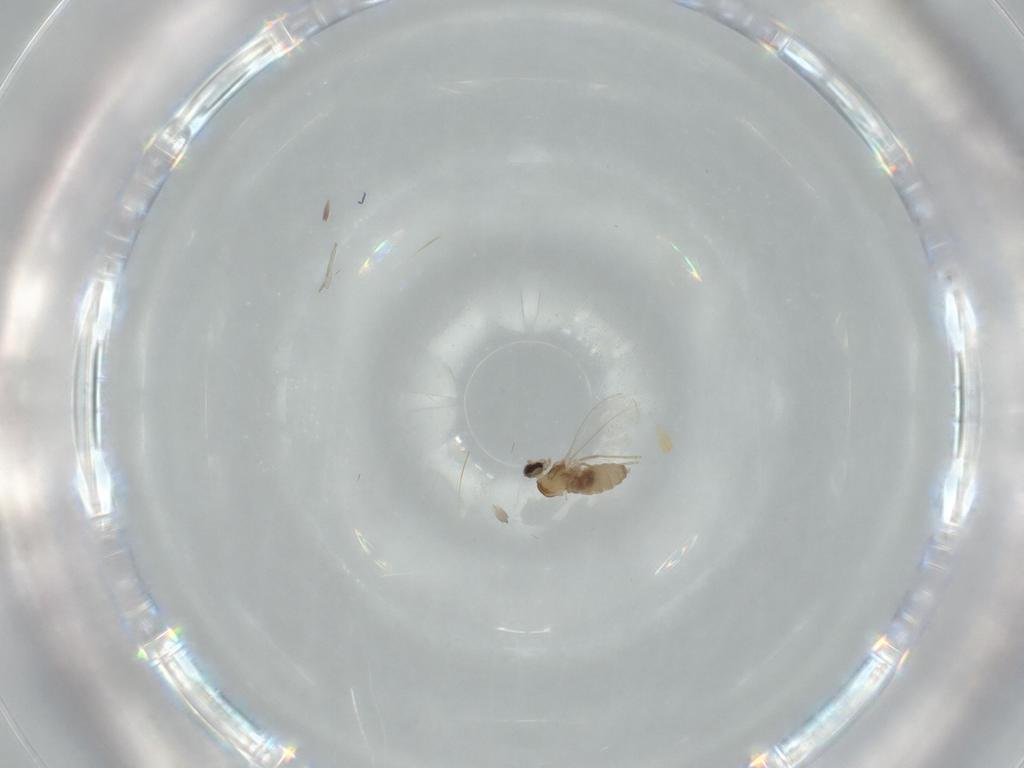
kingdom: Animalia
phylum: Arthropoda
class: Insecta
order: Diptera
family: Cecidomyiidae
